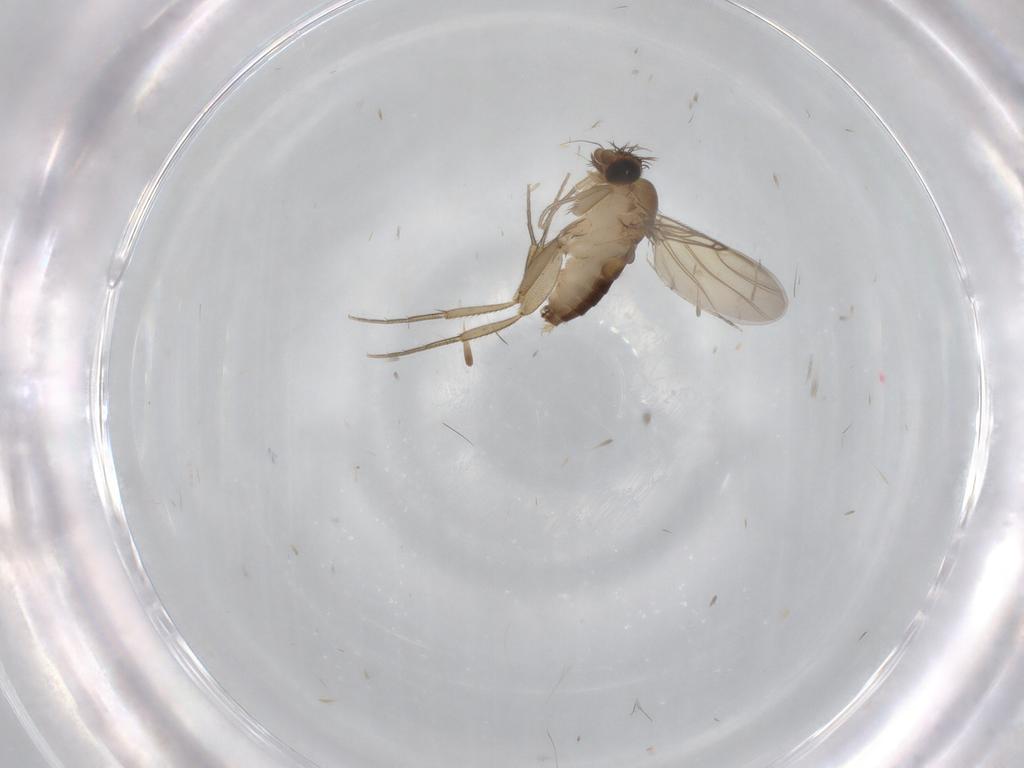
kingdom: Animalia
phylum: Arthropoda
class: Insecta
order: Diptera
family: Phoridae
